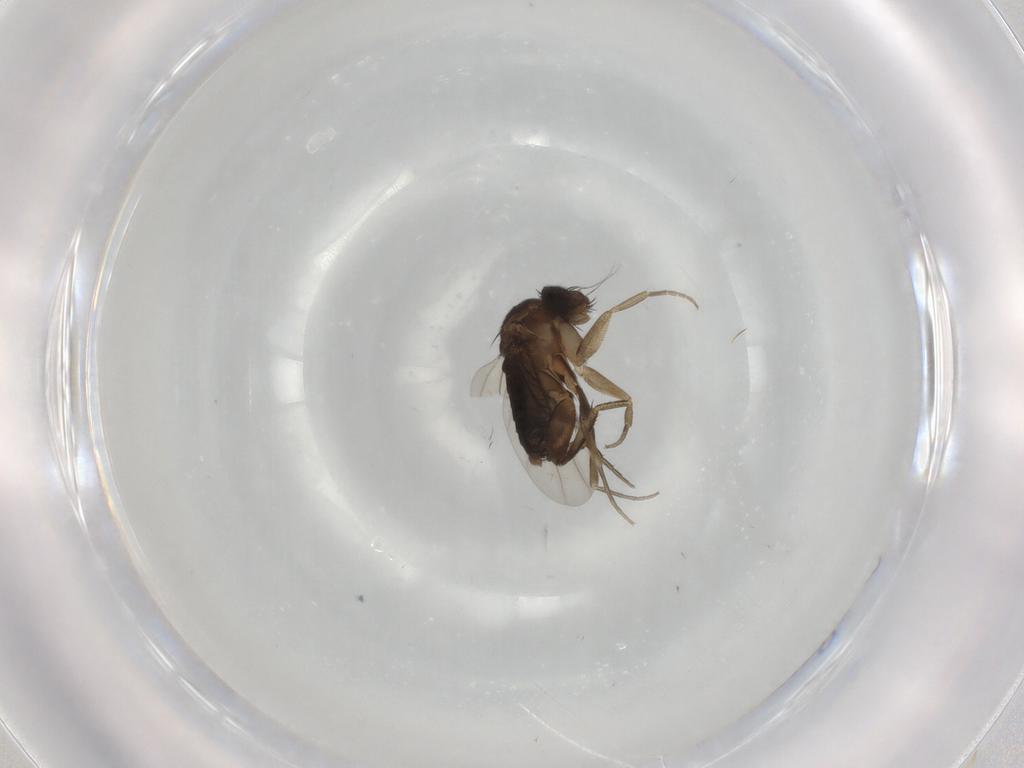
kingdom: Animalia
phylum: Arthropoda
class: Insecta
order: Diptera
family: Phoridae
